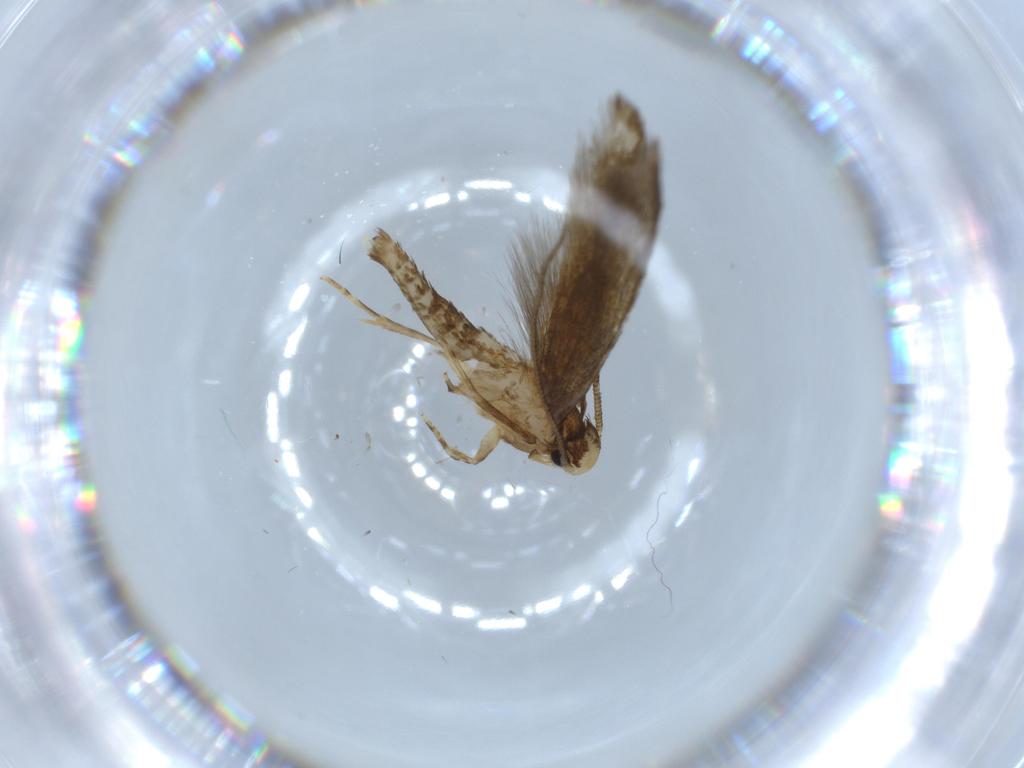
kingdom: Animalia
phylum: Arthropoda
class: Insecta
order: Lepidoptera
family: Tineidae
